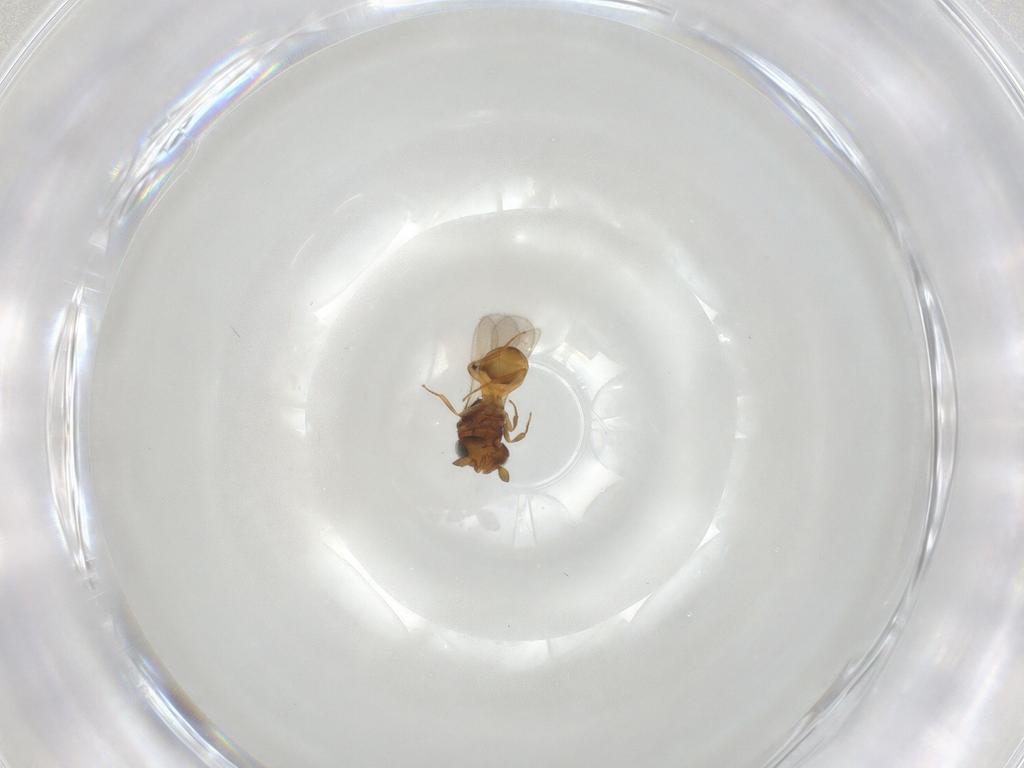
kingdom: Animalia
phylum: Arthropoda
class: Insecta
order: Hymenoptera
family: Scelionidae
